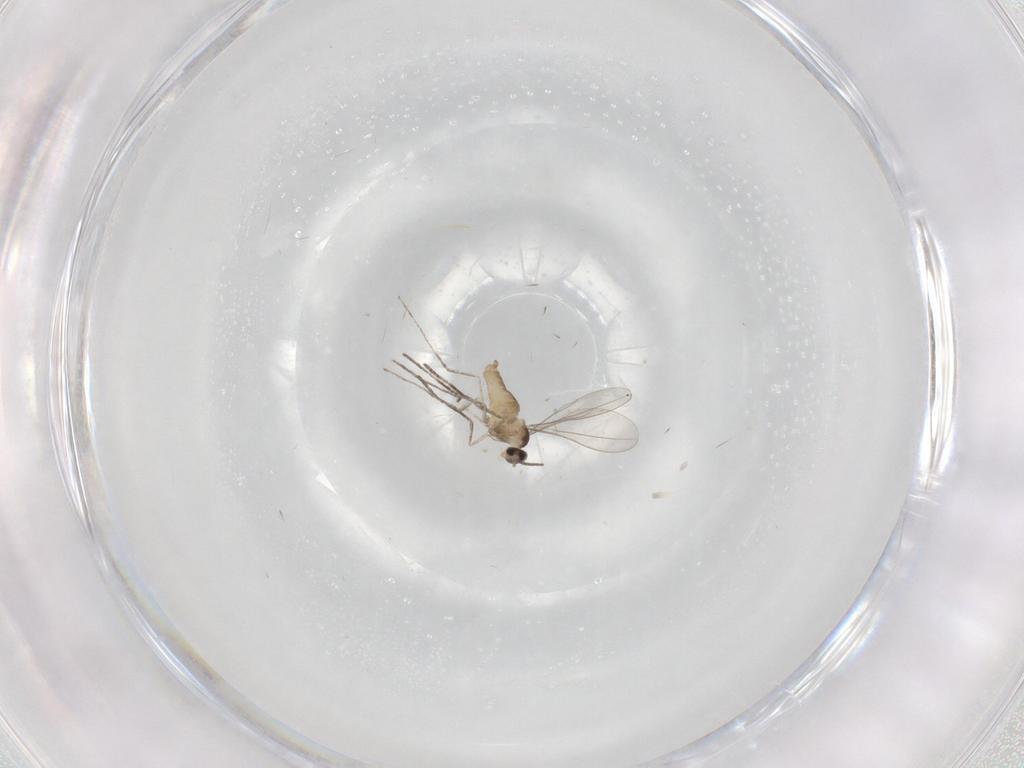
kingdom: Animalia
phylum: Arthropoda
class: Insecta
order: Diptera
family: Cecidomyiidae
